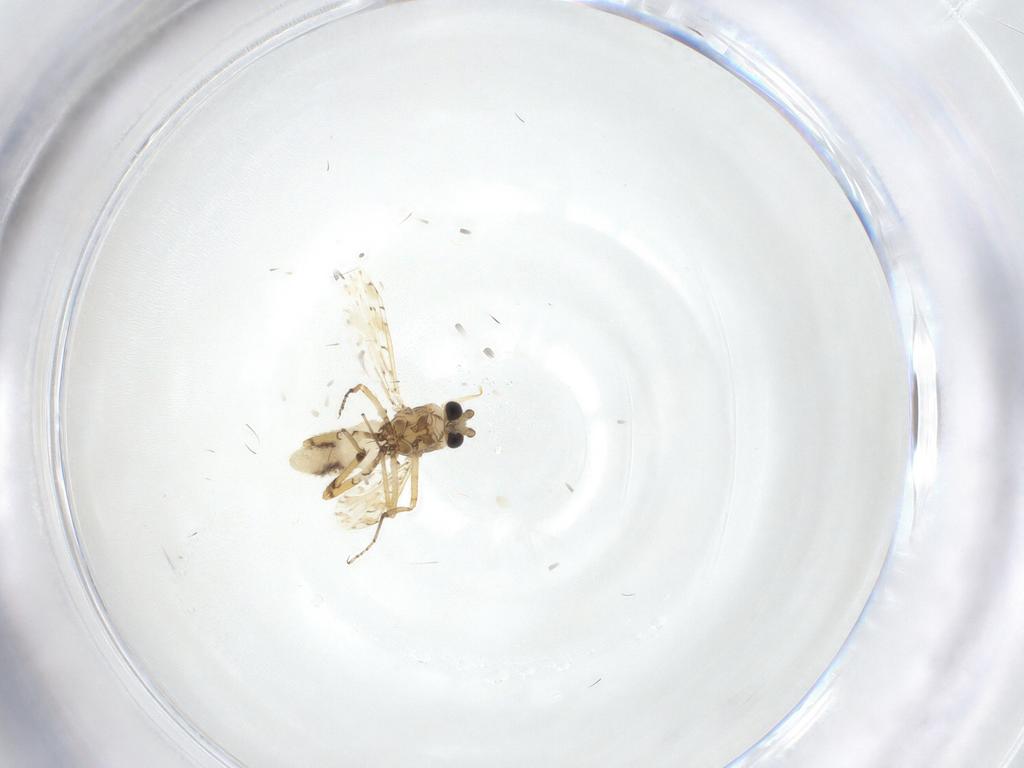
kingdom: Animalia
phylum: Arthropoda
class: Insecta
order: Diptera
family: Ceratopogonidae
